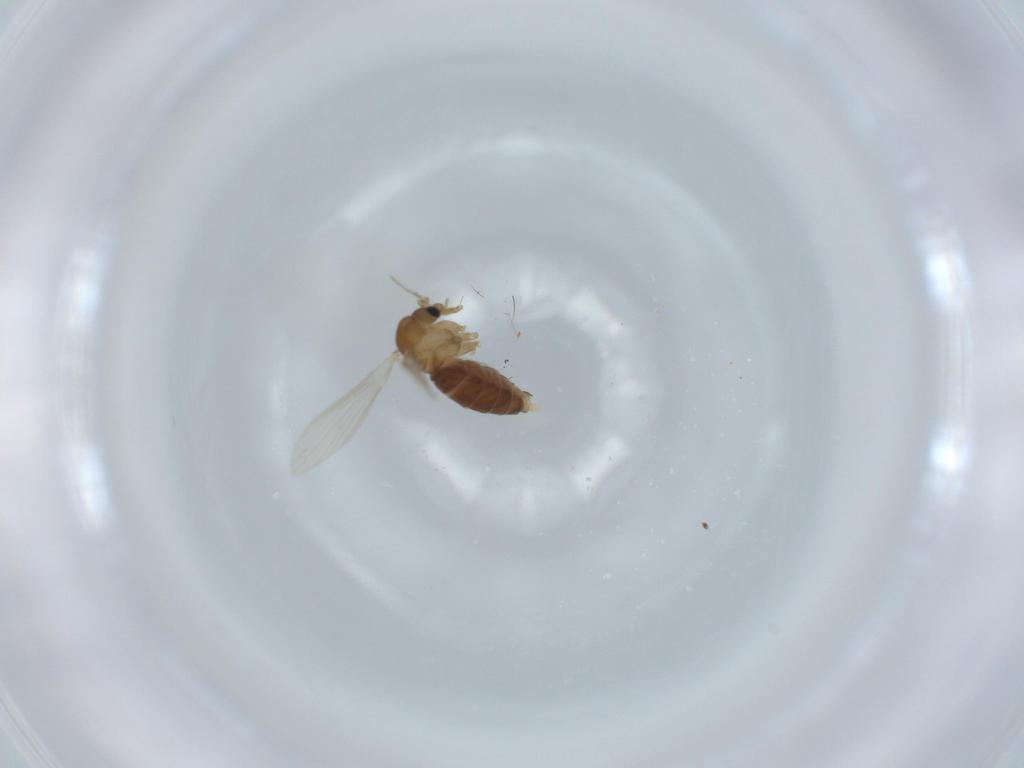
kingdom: Animalia
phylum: Arthropoda
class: Insecta
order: Diptera
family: Psychodidae
